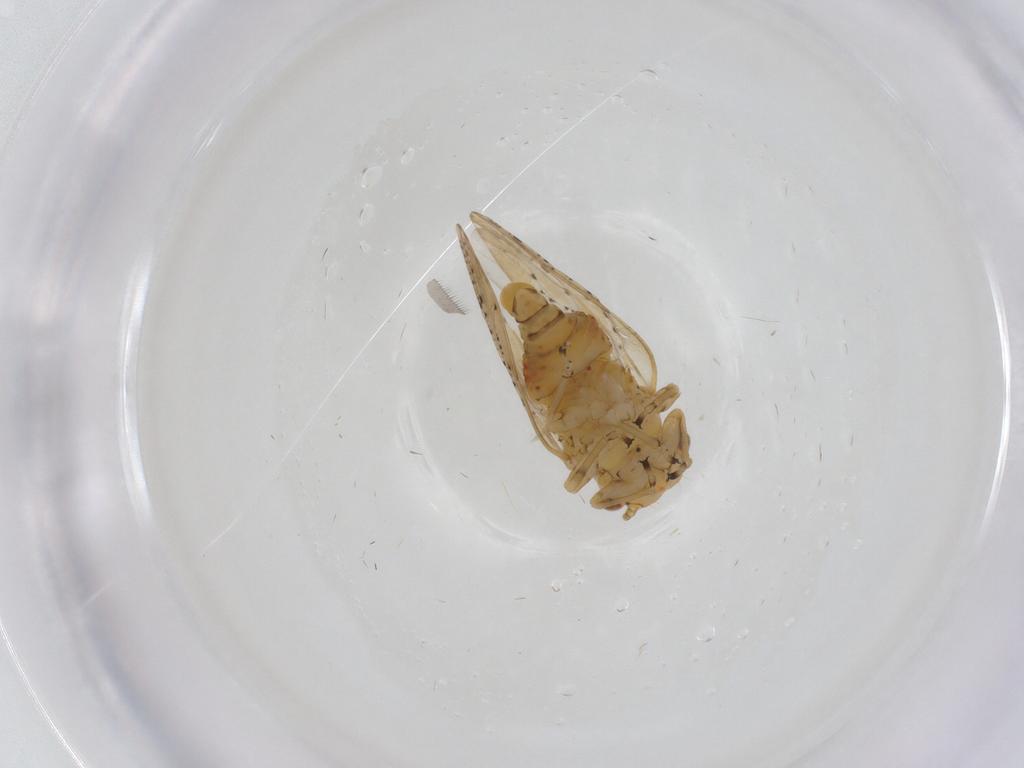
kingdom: Animalia
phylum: Arthropoda
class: Insecta
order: Hemiptera
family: Liviidae
